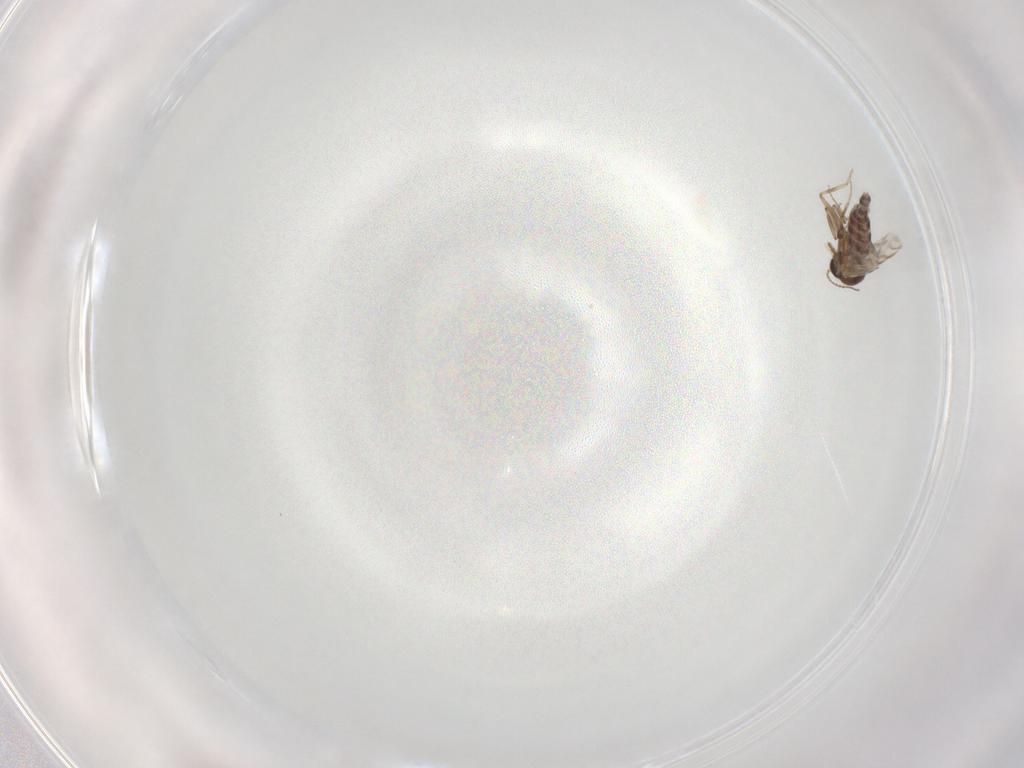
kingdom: Animalia
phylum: Arthropoda
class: Insecta
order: Diptera
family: Ceratopogonidae
